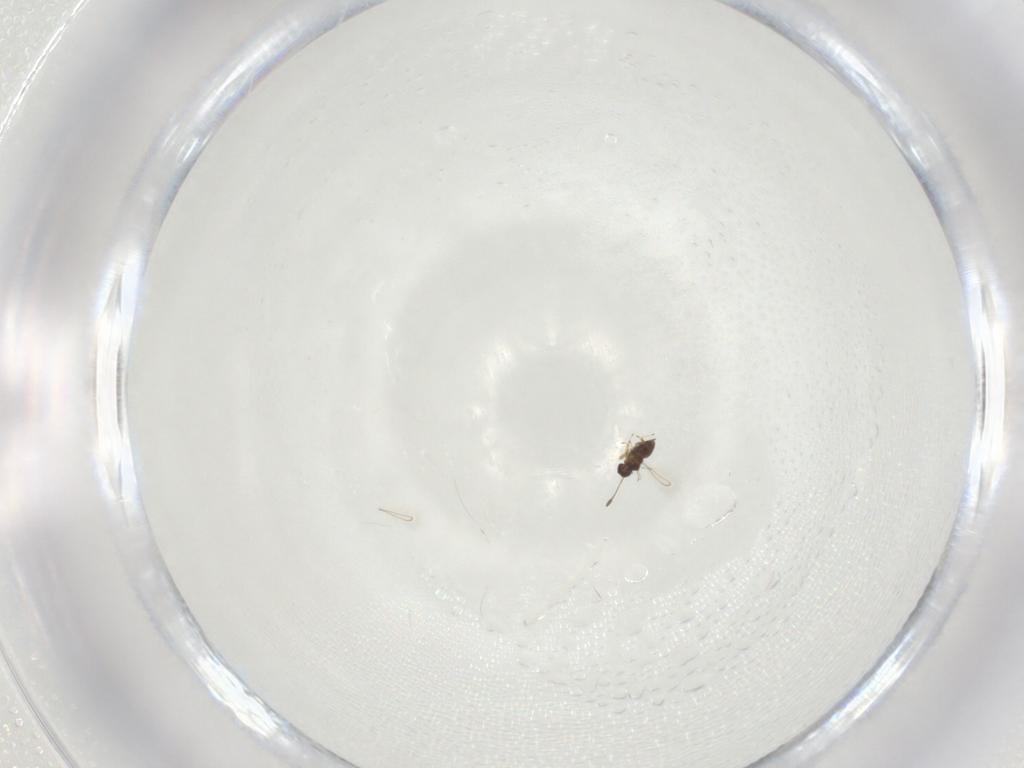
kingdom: Animalia
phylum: Arthropoda
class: Insecta
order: Hymenoptera
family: Mymaridae
